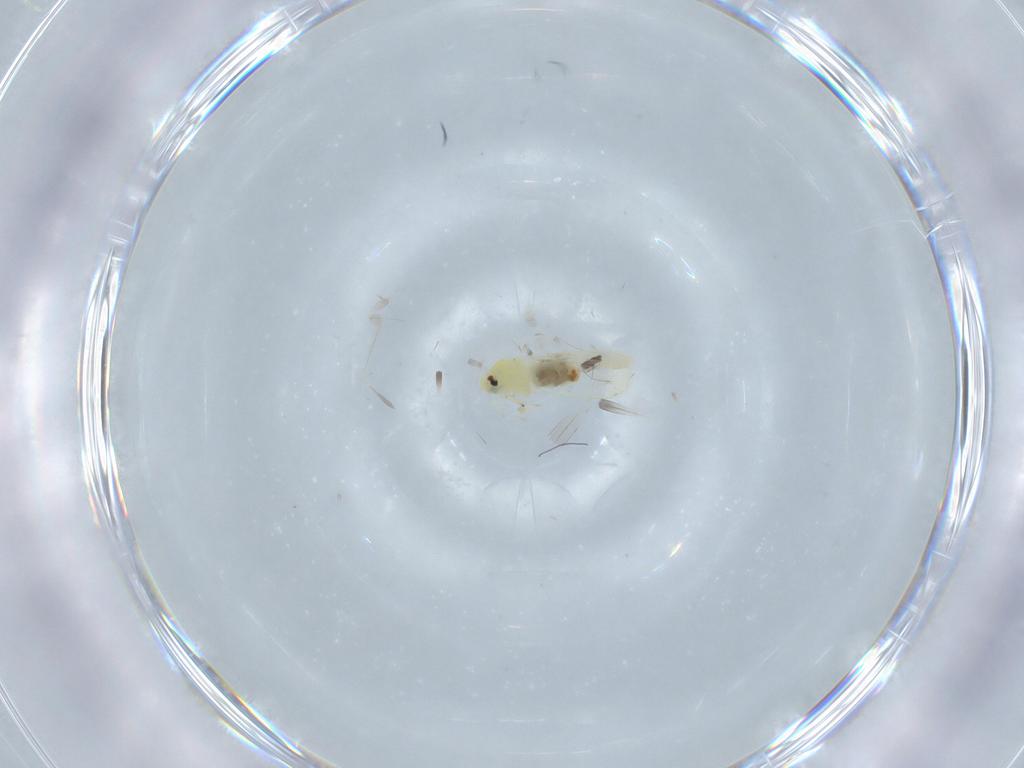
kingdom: Animalia
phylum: Arthropoda
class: Insecta
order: Hemiptera
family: Aleyrodidae
